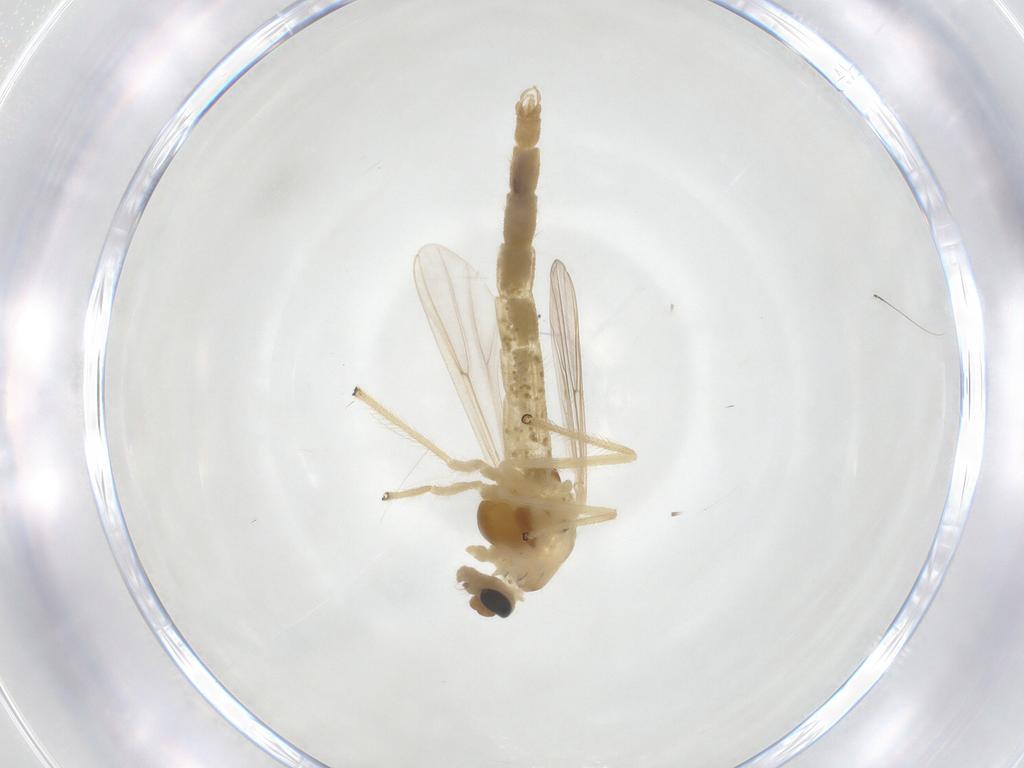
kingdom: Animalia
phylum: Arthropoda
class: Insecta
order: Diptera
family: Chironomidae
